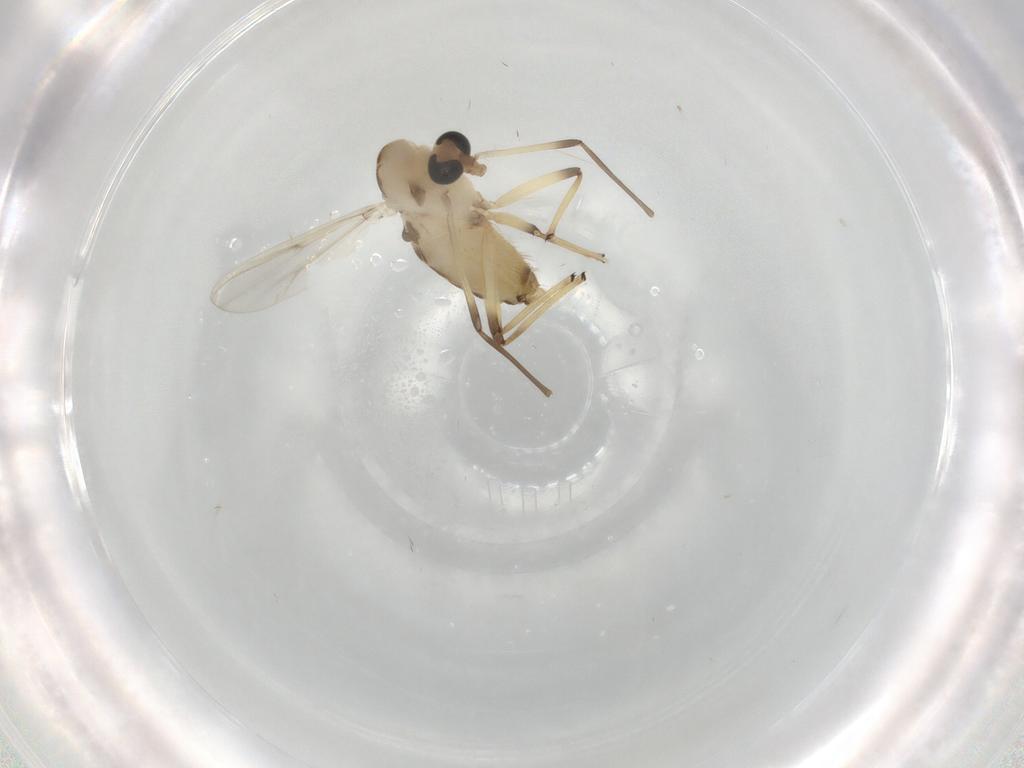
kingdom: Animalia
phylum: Arthropoda
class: Insecta
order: Diptera
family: Chironomidae
